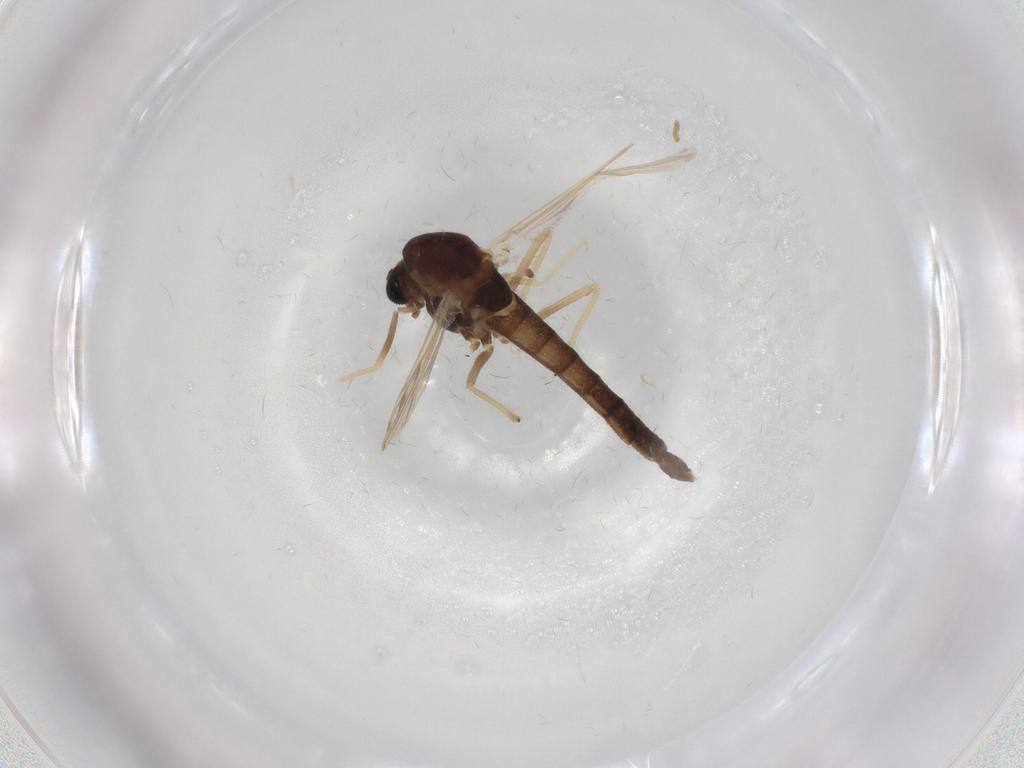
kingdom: Animalia
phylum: Arthropoda
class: Insecta
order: Diptera
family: Chironomidae
